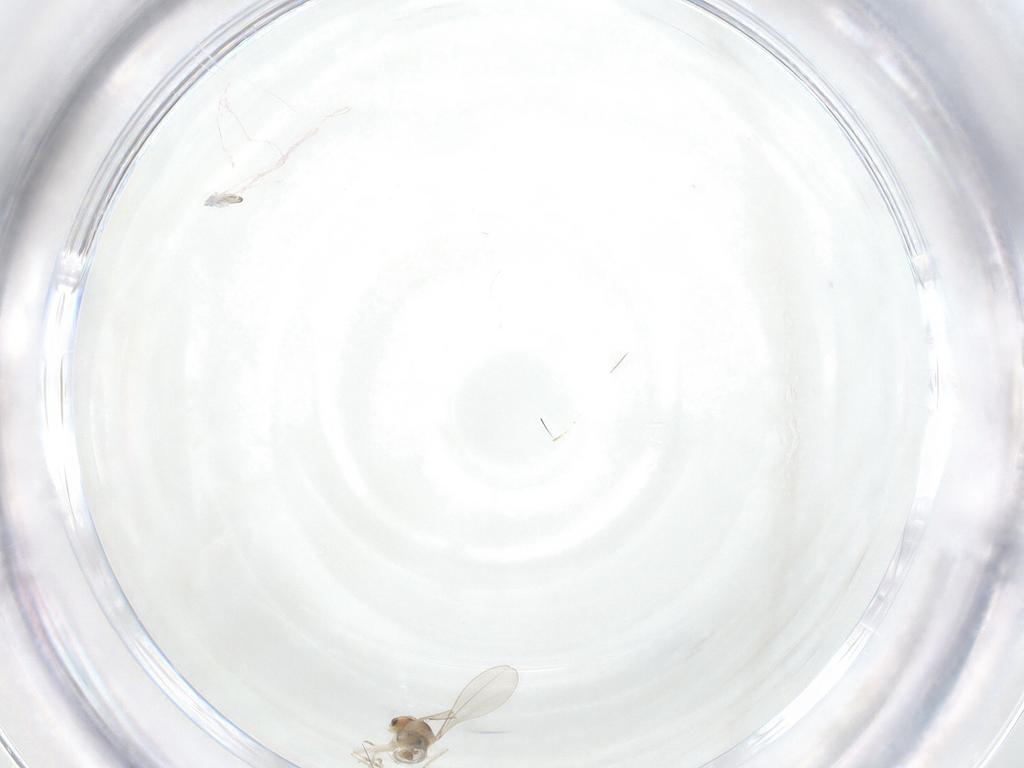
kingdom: Animalia
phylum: Arthropoda
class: Insecta
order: Diptera
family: Cecidomyiidae
